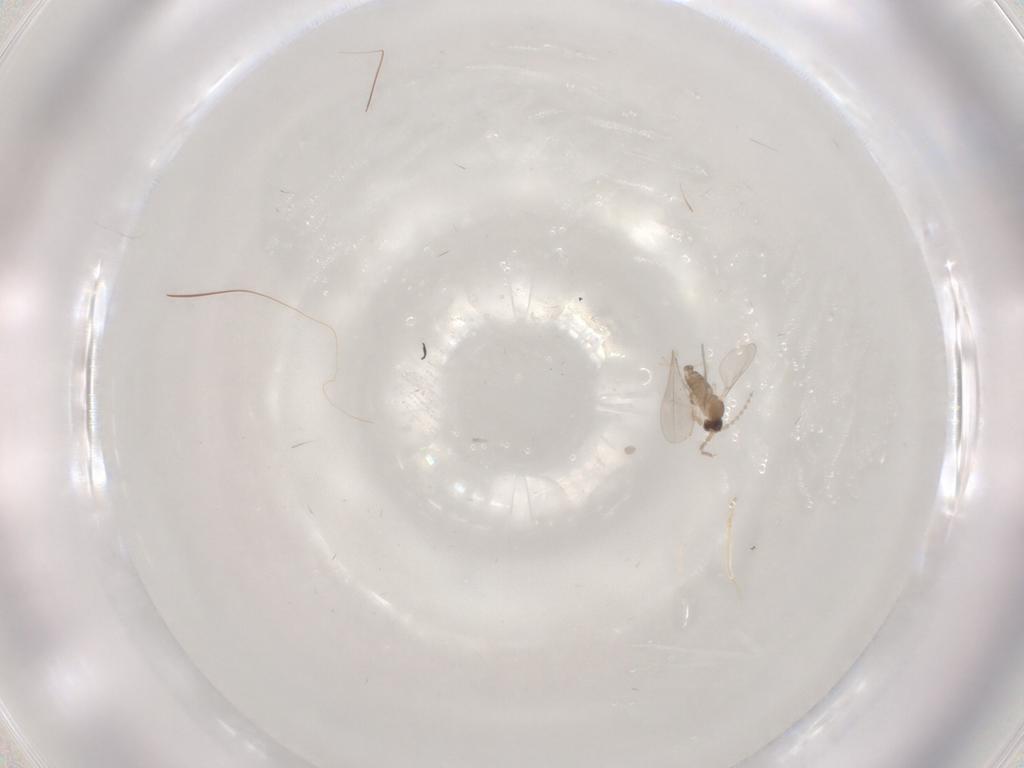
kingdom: Animalia
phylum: Arthropoda
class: Insecta
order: Diptera
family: Cecidomyiidae
